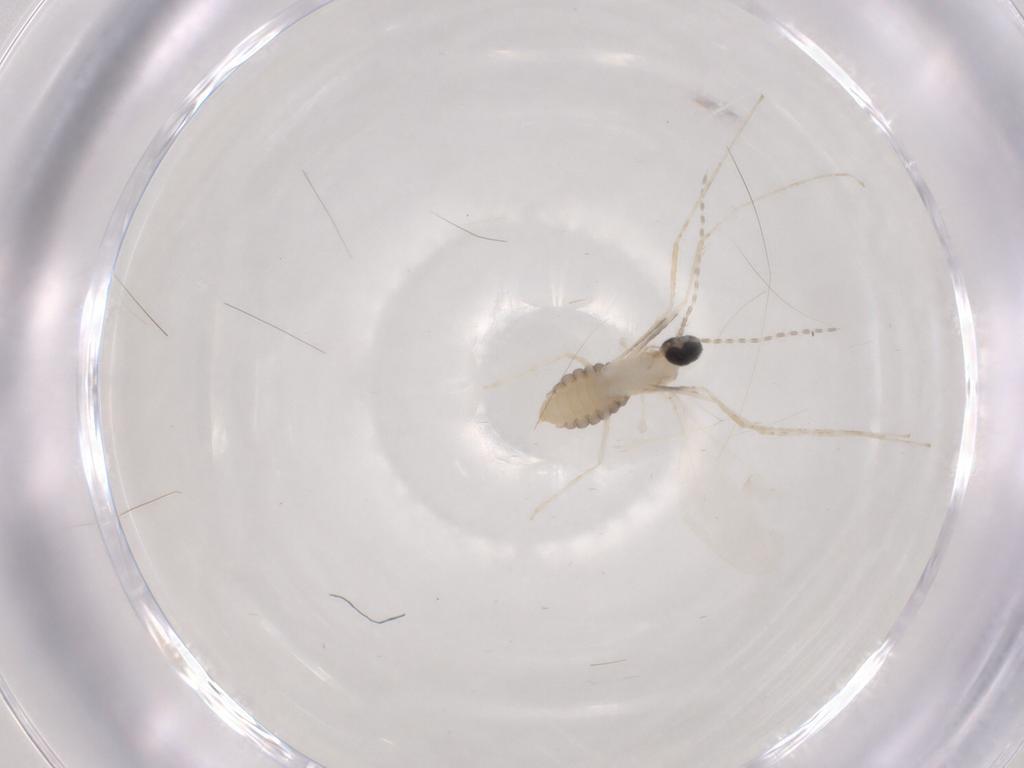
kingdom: Animalia
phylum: Arthropoda
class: Insecta
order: Diptera
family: Cecidomyiidae
